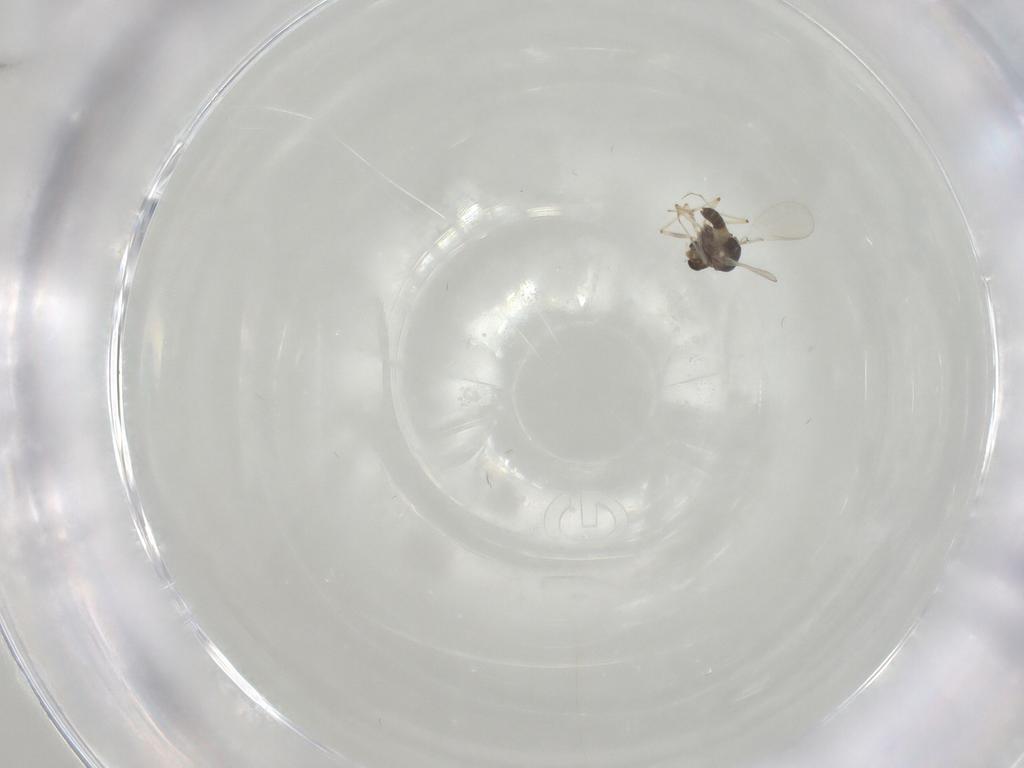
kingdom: Animalia
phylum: Arthropoda
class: Insecta
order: Diptera
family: Chironomidae
